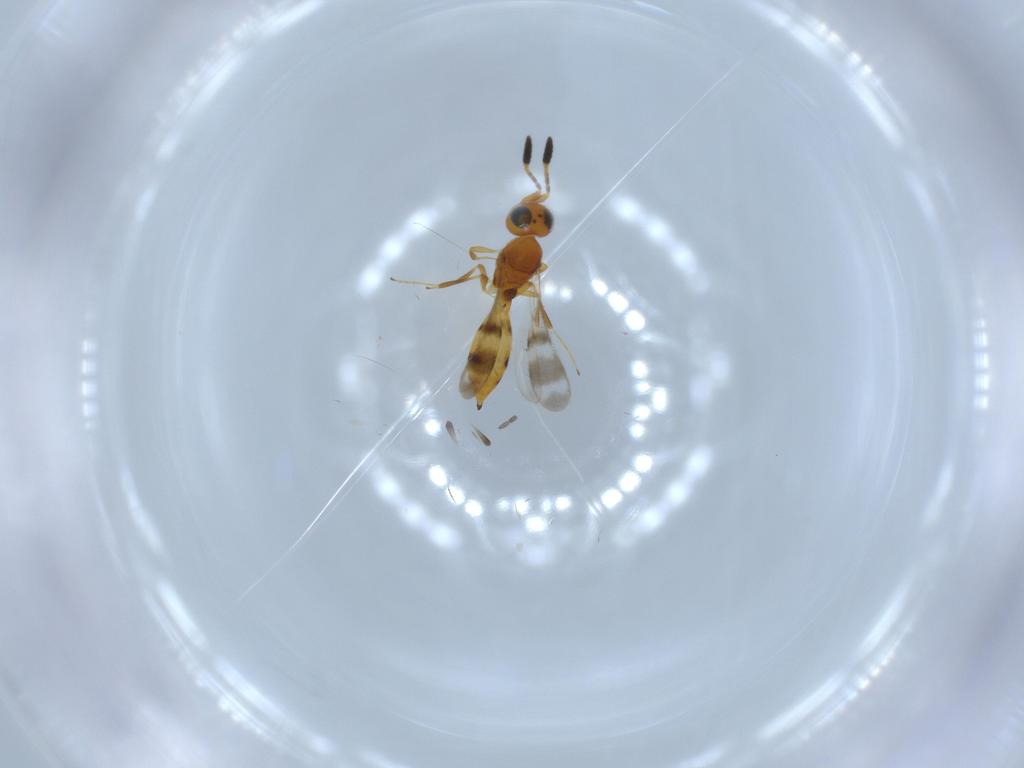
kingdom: Animalia
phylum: Arthropoda
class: Insecta
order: Hymenoptera
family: Scelionidae
